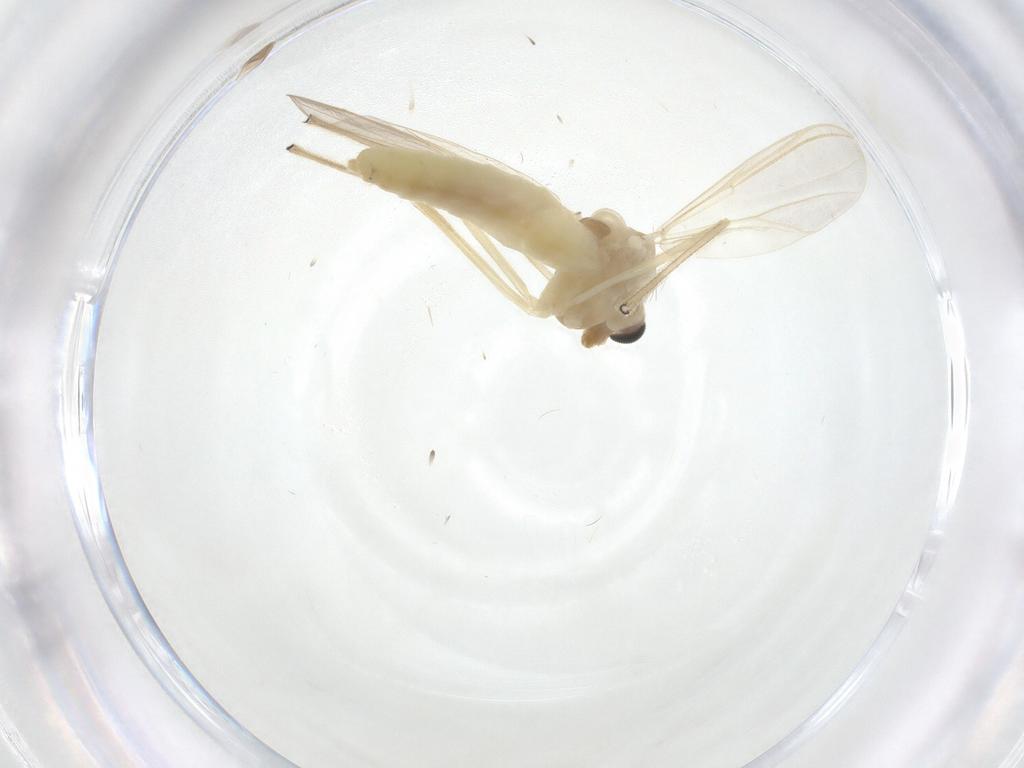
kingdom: Animalia
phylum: Arthropoda
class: Insecta
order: Diptera
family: Chironomidae
